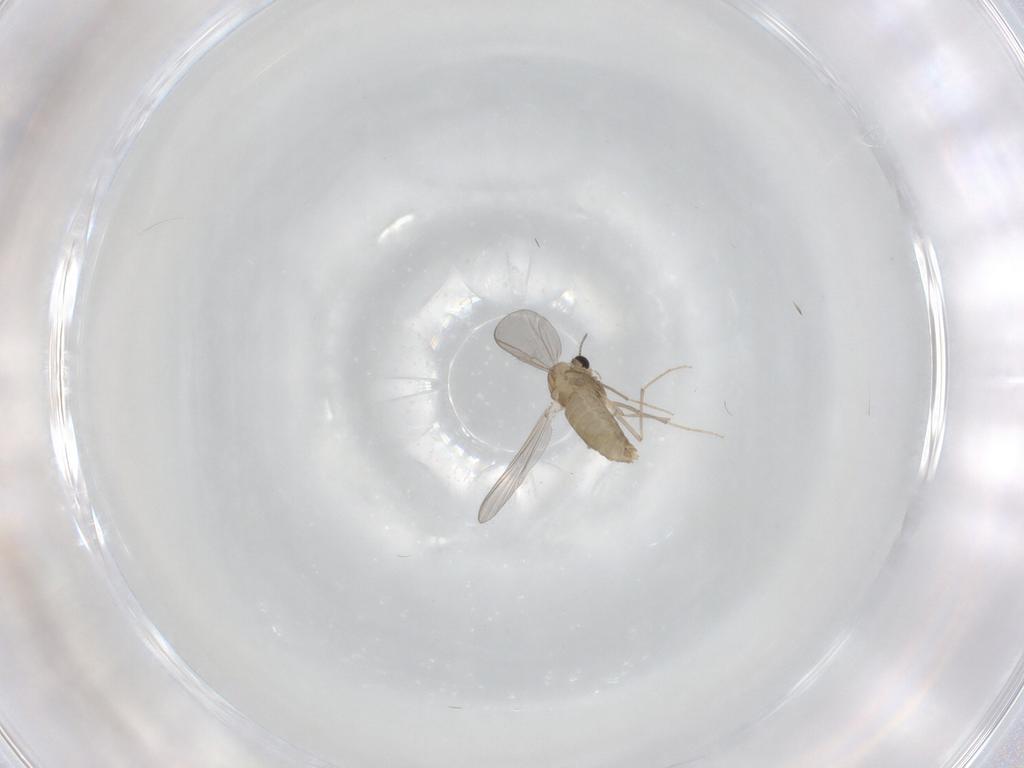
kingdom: Animalia
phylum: Arthropoda
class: Insecta
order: Diptera
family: Chironomidae
